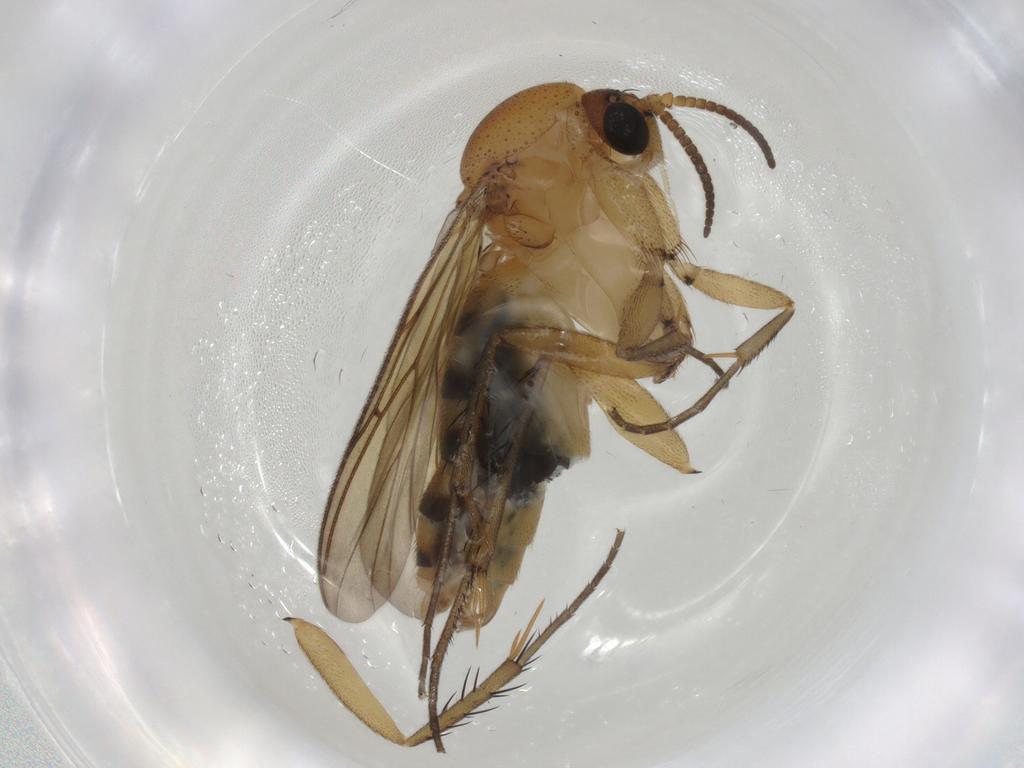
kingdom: Animalia
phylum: Arthropoda
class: Insecta
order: Diptera
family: Mycetophilidae
